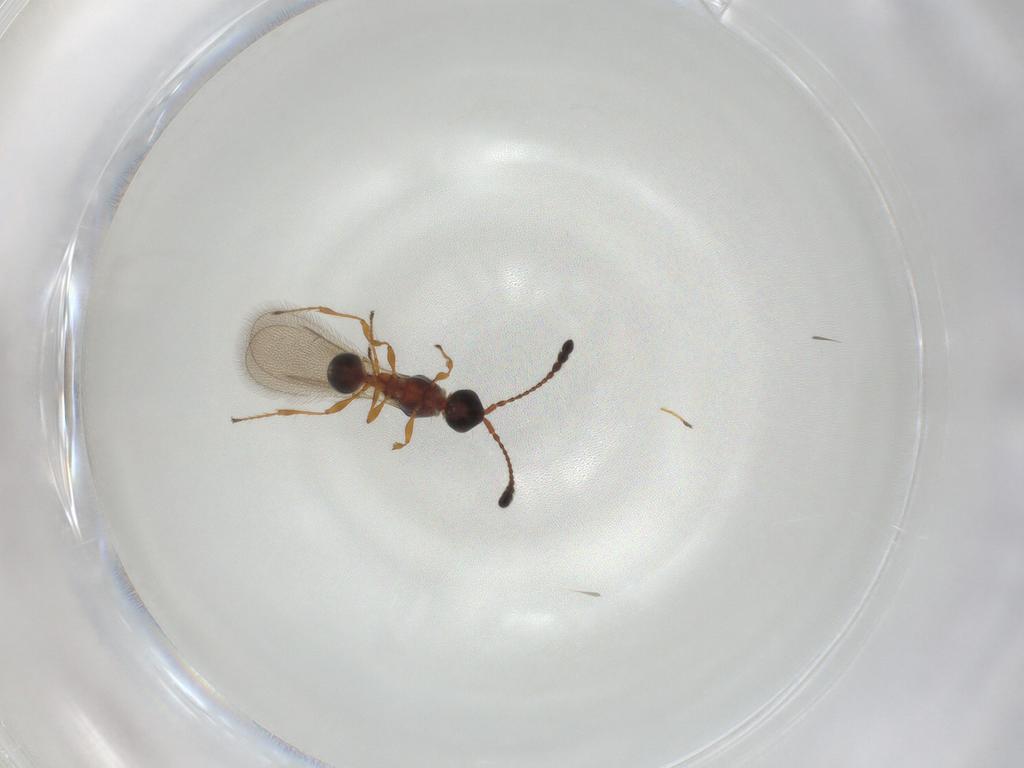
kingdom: Animalia
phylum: Arthropoda
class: Insecta
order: Hymenoptera
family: Diapriidae
